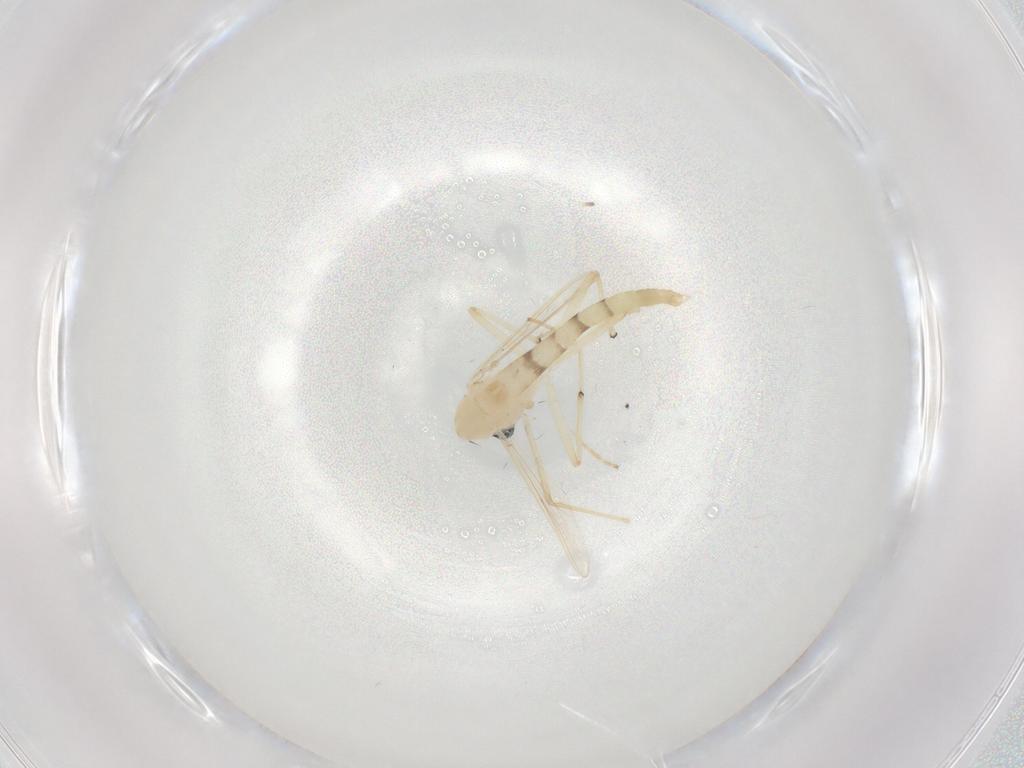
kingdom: Animalia
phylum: Arthropoda
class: Insecta
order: Diptera
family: Chironomidae
